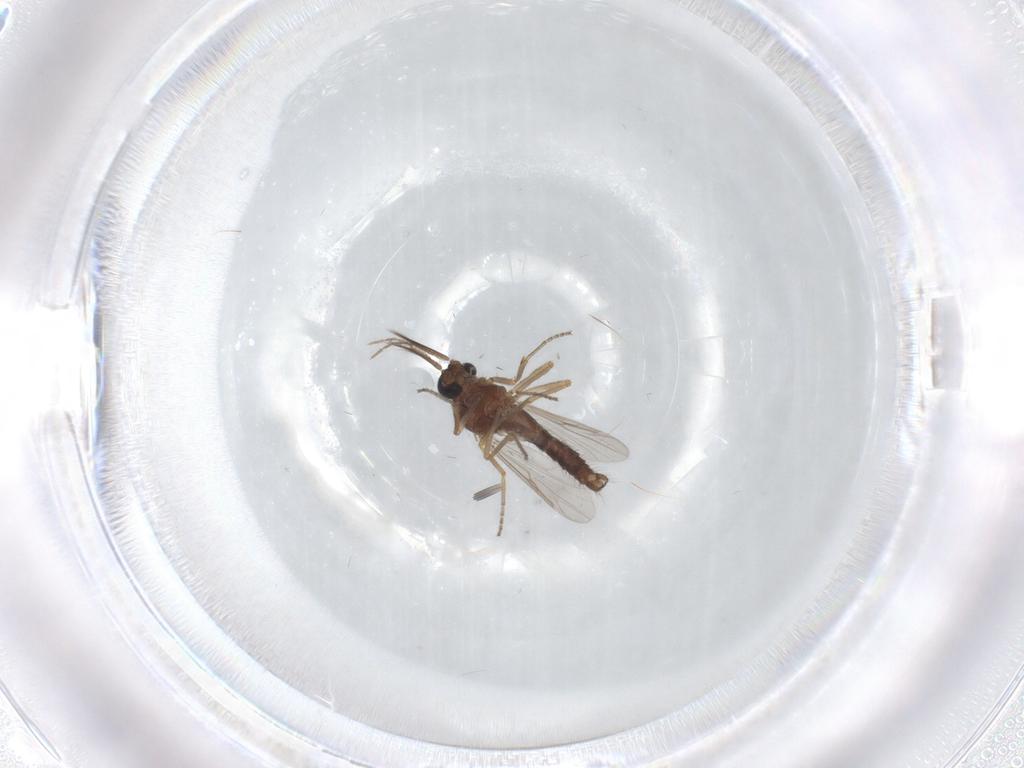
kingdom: Animalia
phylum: Arthropoda
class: Insecta
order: Diptera
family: Ceratopogonidae
